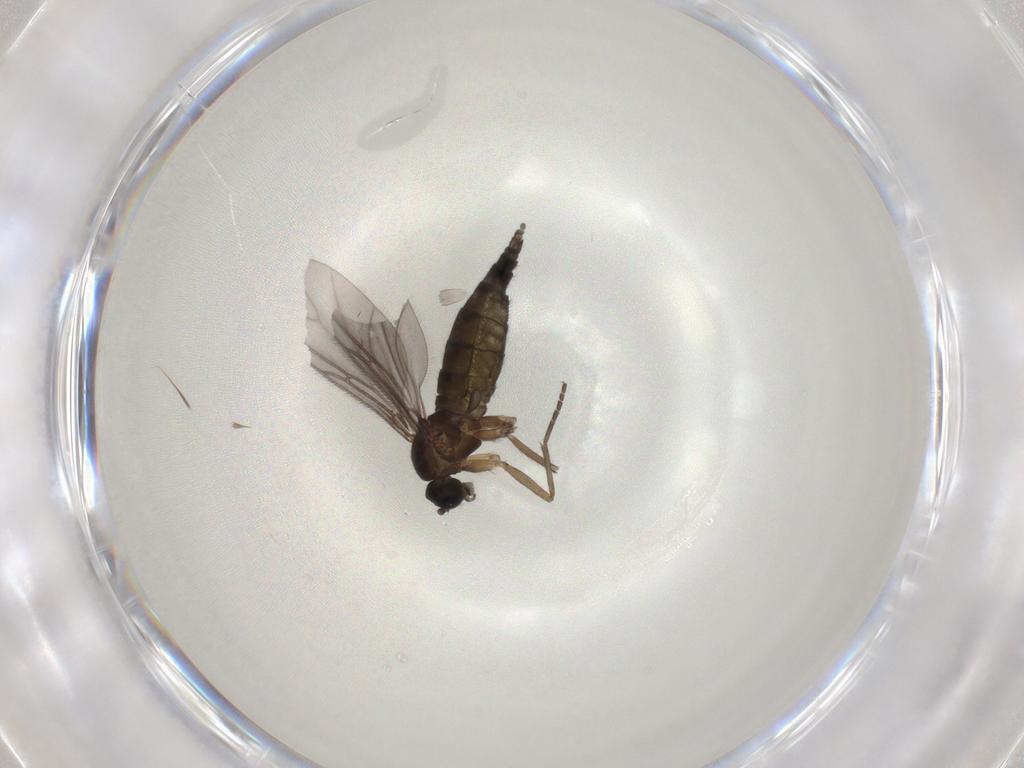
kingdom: Animalia
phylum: Arthropoda
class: Insecta
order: Diptera
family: Sciaridae
